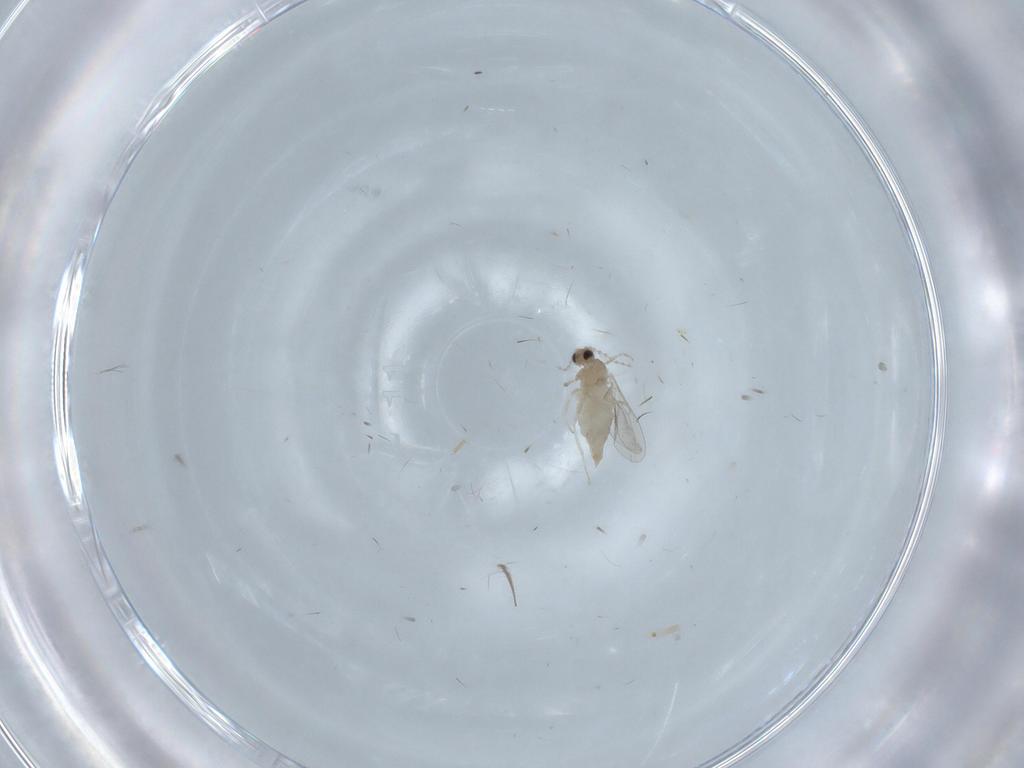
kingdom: Animalia
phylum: Arthropoda
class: Insecta
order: Diptera
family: Cecidomyiidae
